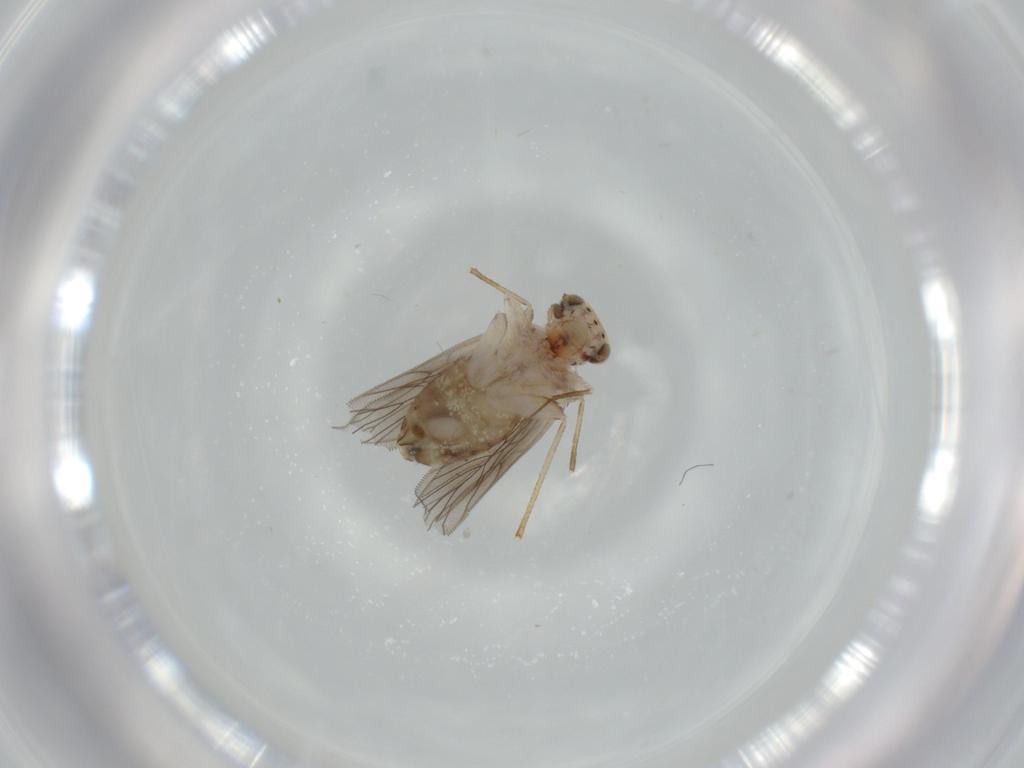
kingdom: Animalia
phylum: Arthropoda
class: Insecta
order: Psocodea
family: Lepidopsocidae
